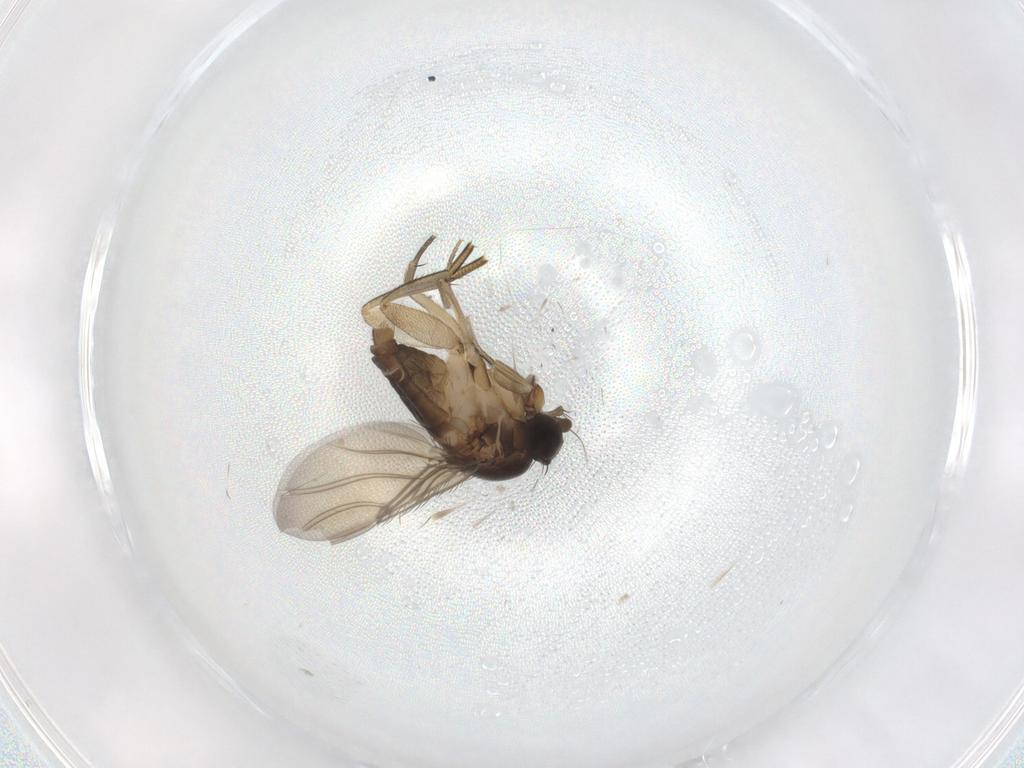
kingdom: Animalia
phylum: Arthropoda
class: Insecta
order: Diptera
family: Phoridae
